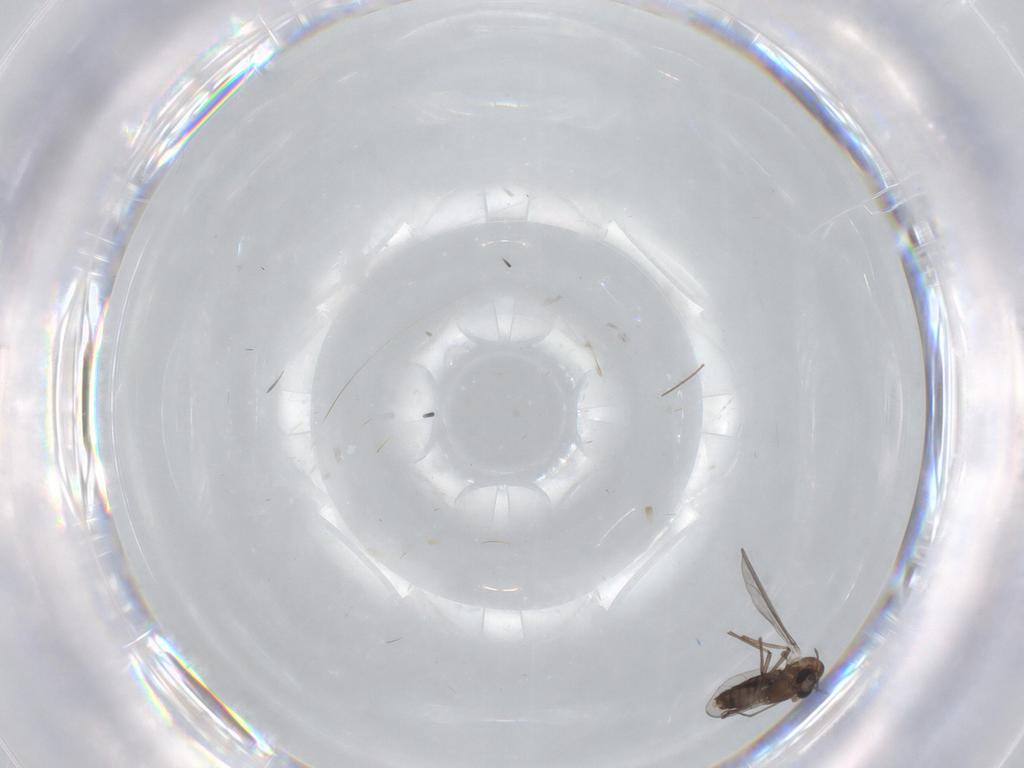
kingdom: Animalia
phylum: Arthropoda
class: Insecta
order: Diptera
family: Chironomidae
